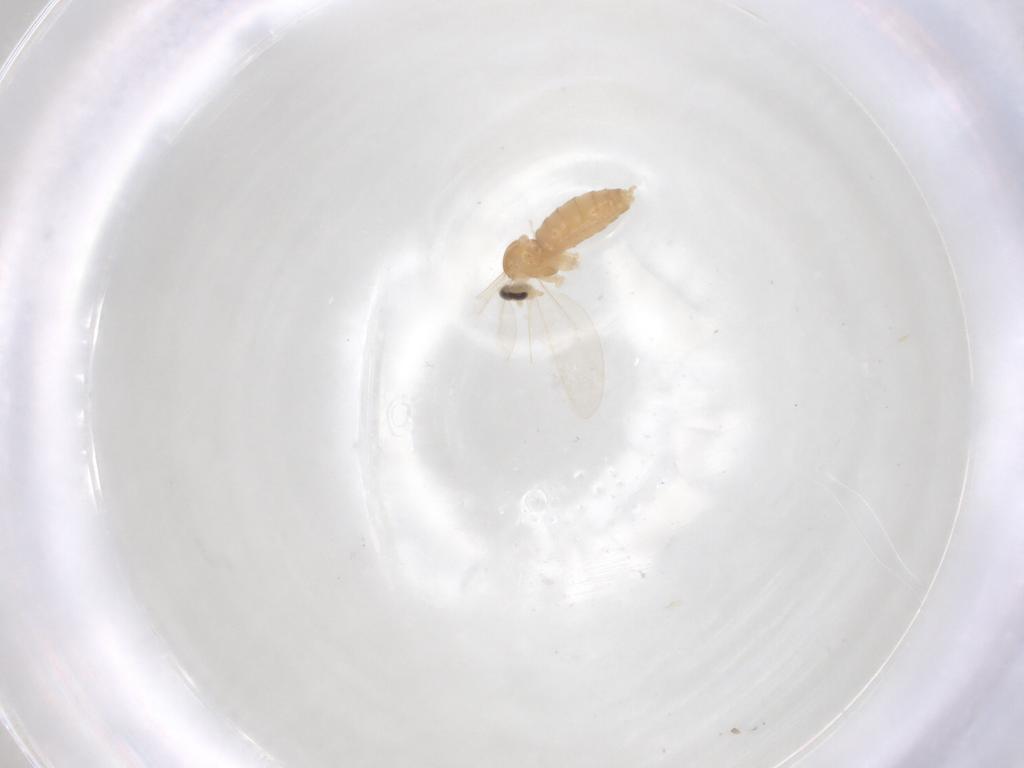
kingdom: Animalia
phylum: Arthropoda
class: Insecta
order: Diptera
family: Cecidomyiidae
